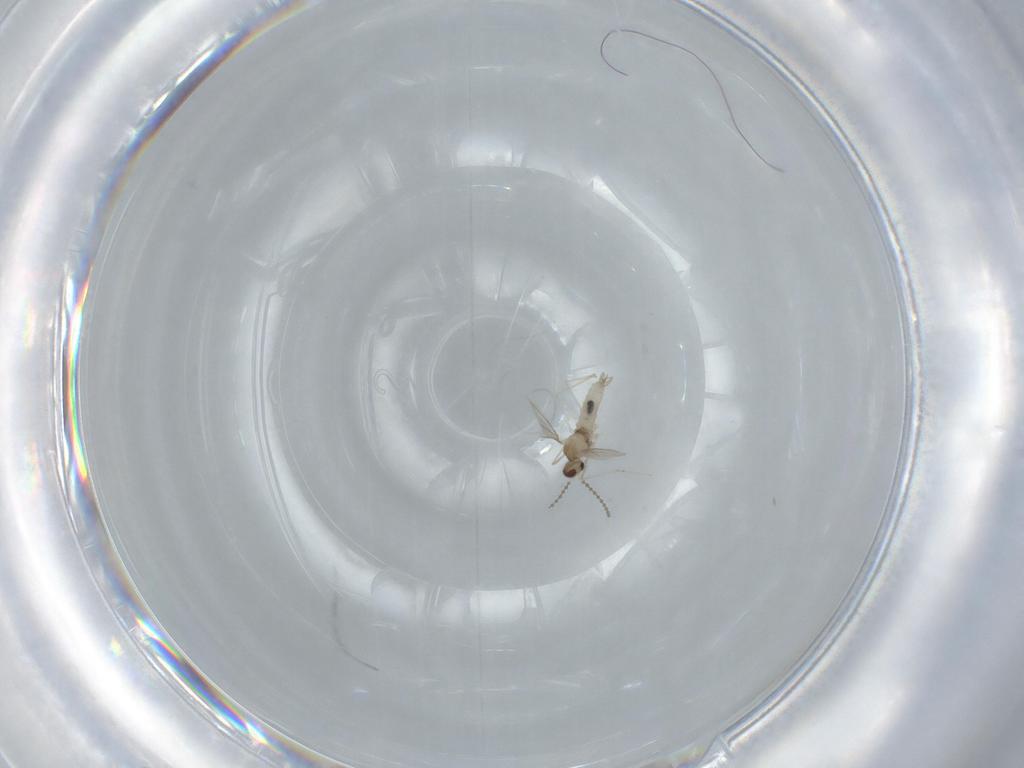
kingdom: Animalia
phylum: Arthropoda
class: Insecta
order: Diptera
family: Cecidomyiidae
